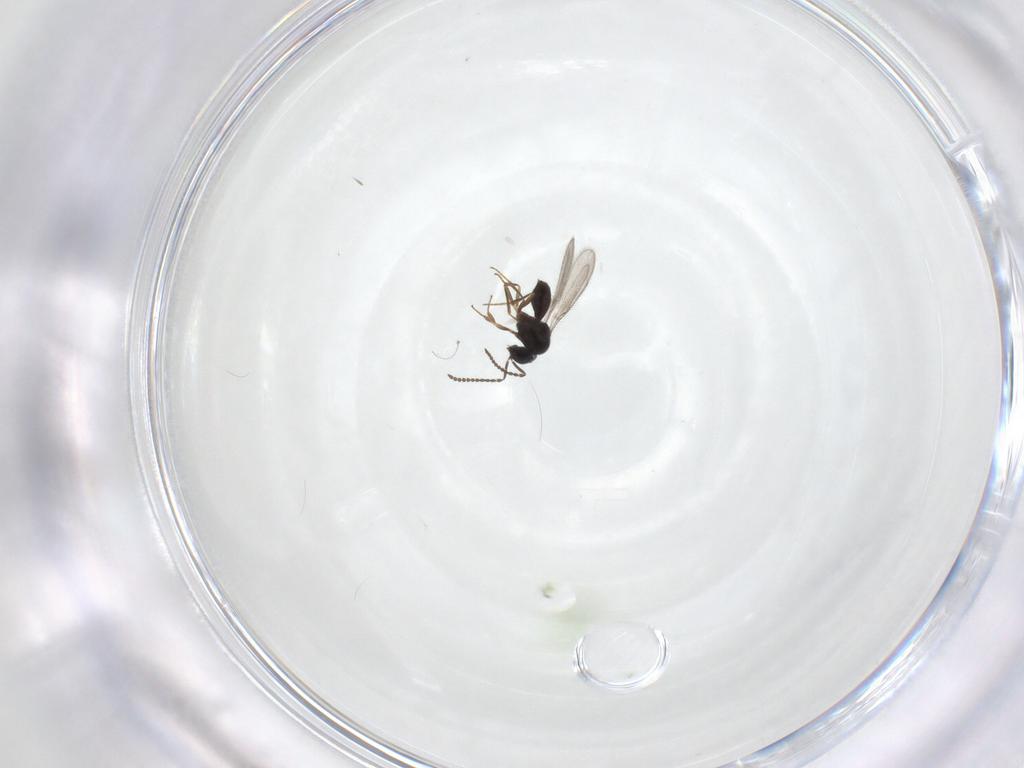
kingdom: Animalia
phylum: Arthropoda
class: Insecta
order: Hymenoptera
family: Scelionidae
